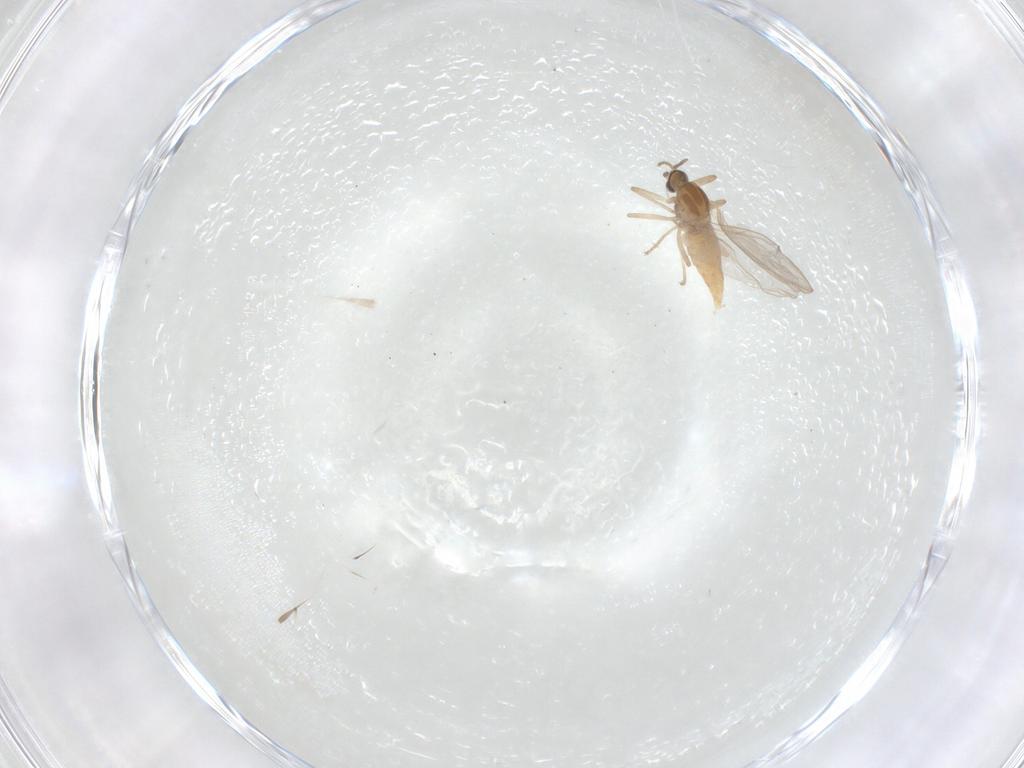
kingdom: Animalia
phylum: Arthropoda
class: Insecta
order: Diptera
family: Cecidomyiidae
